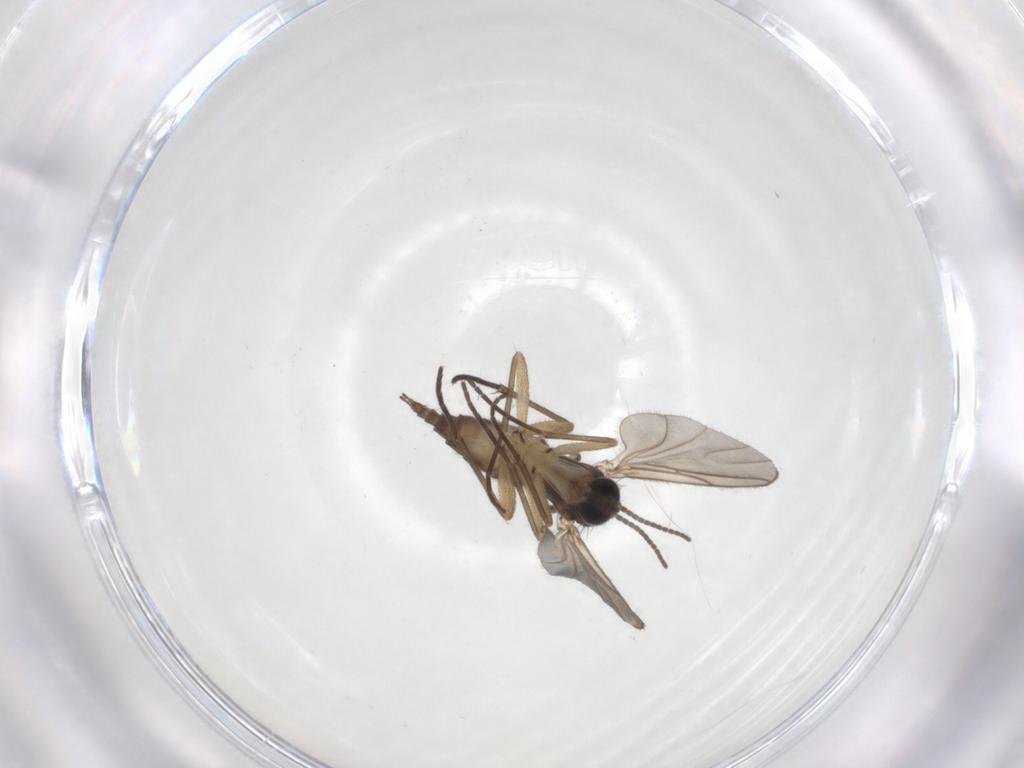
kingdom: Animalia
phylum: Arthropoda
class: Insecta
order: Diptera
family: Sciaridae
